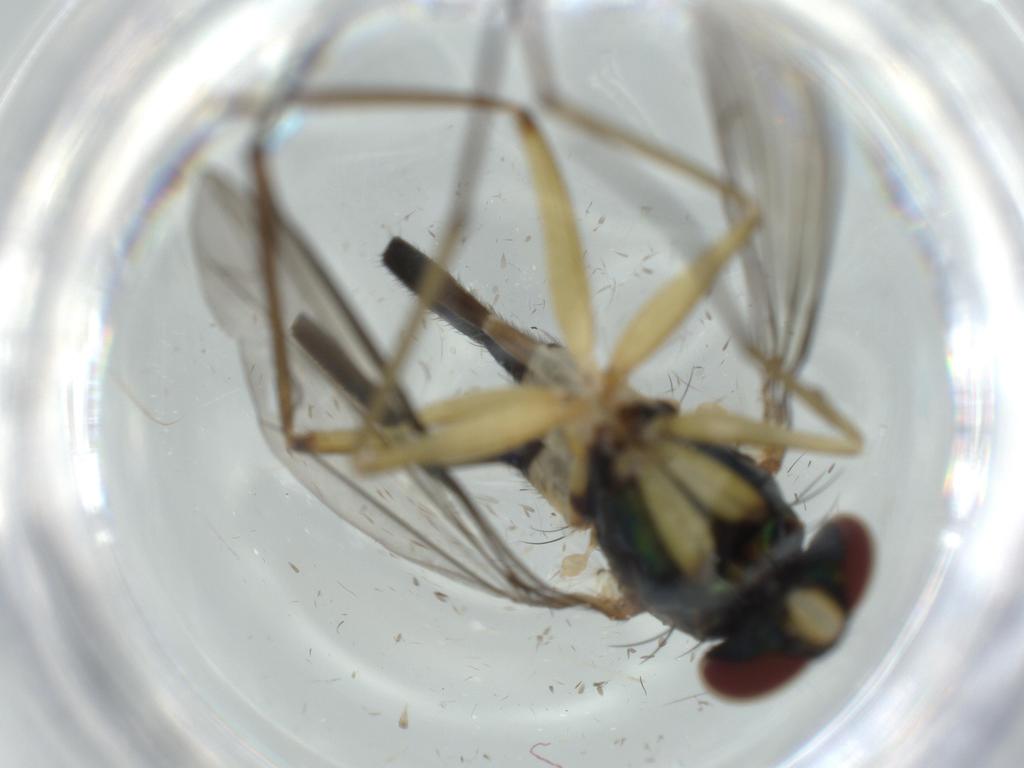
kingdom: Animalia
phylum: Arthropoda
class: Insecta
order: Diptera
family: Dolichopodidae
